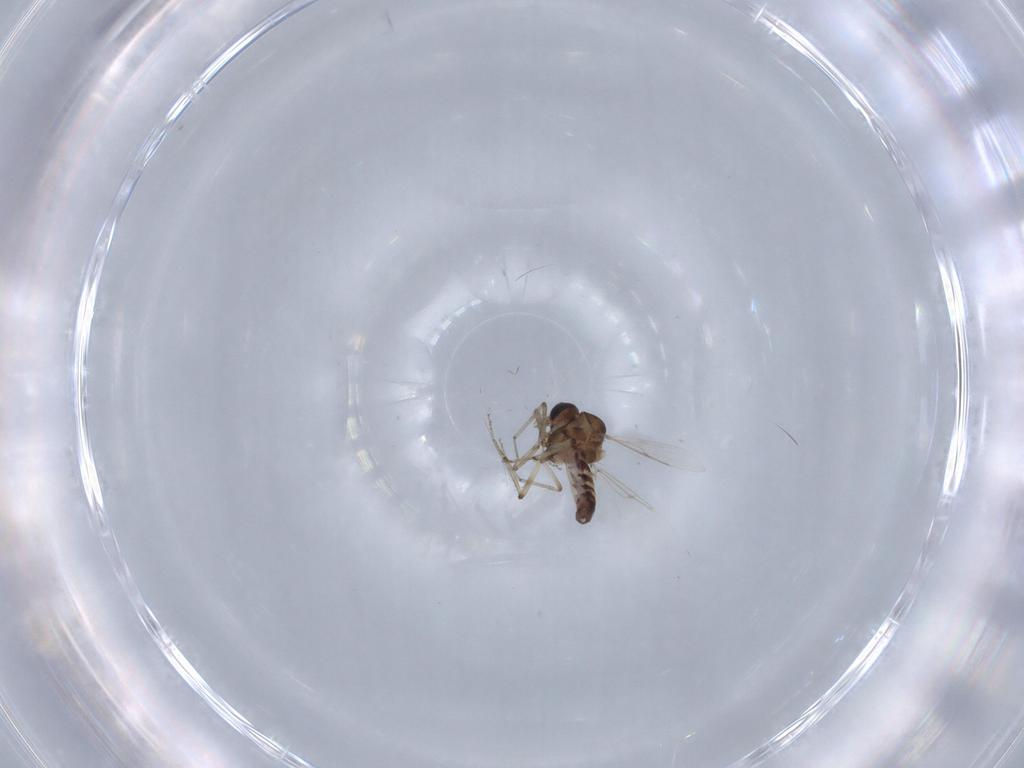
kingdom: Animalia
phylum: Arthropoda
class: Insecta
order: Diptera
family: Ceratopogonidae
